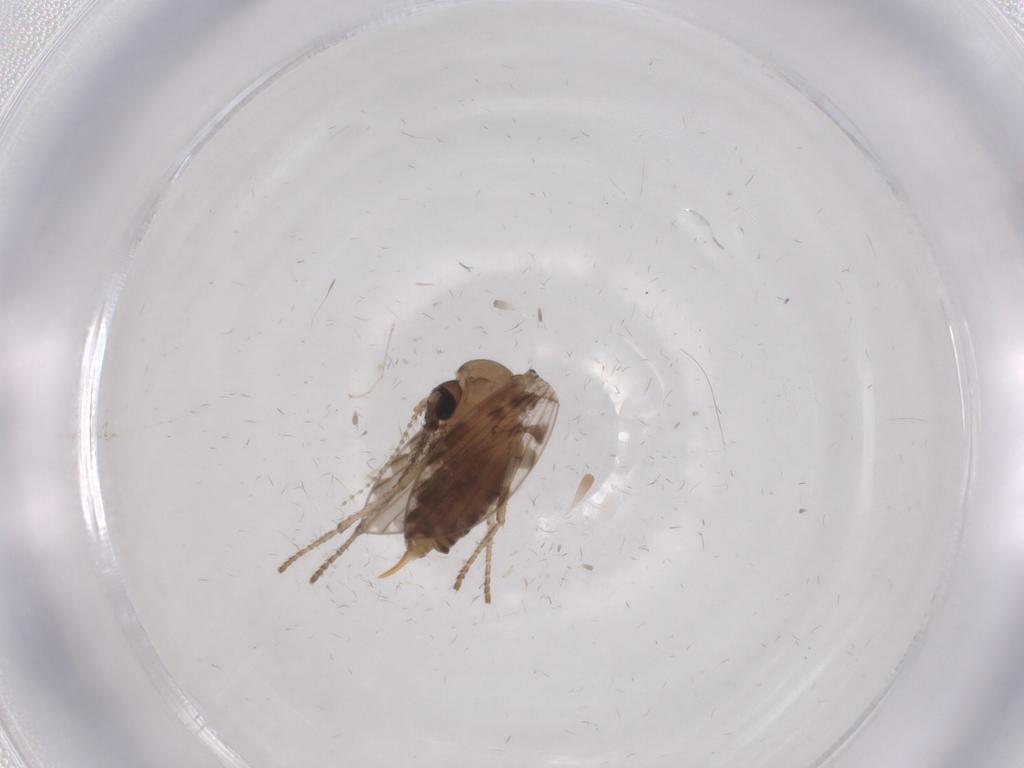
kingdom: Animalia
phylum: Arthropoda
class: Insecta
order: Diptera
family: Psychodidae
